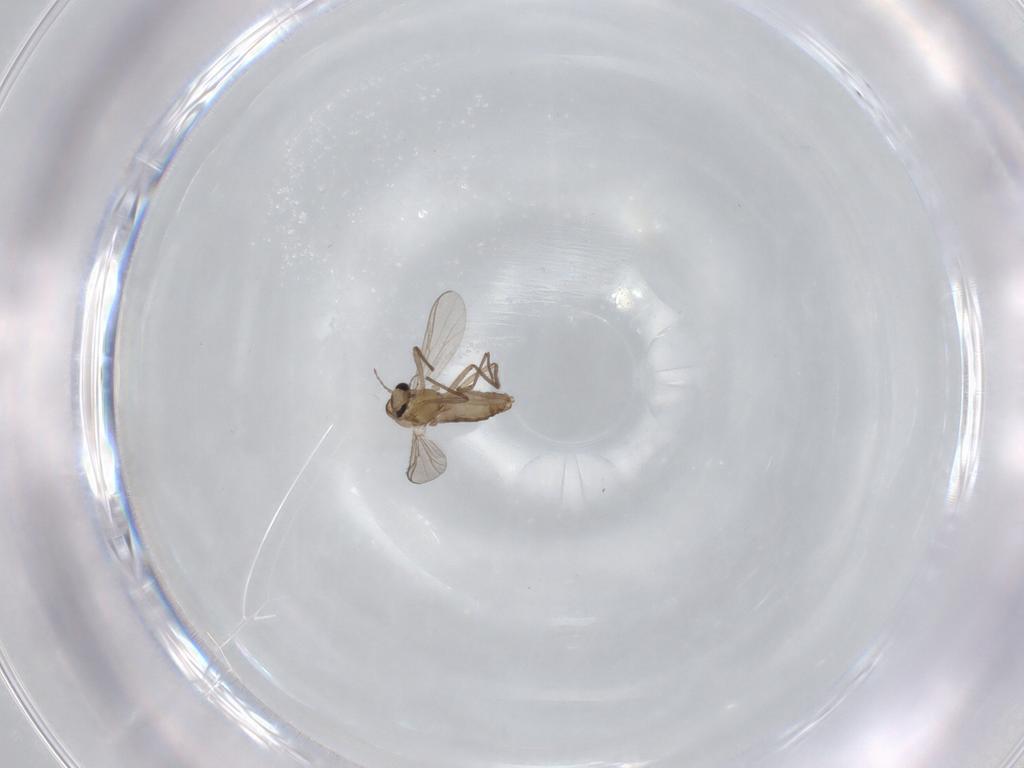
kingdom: Animalia
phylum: Arthropoda
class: Insecta
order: Diptera
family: Chironomidae
